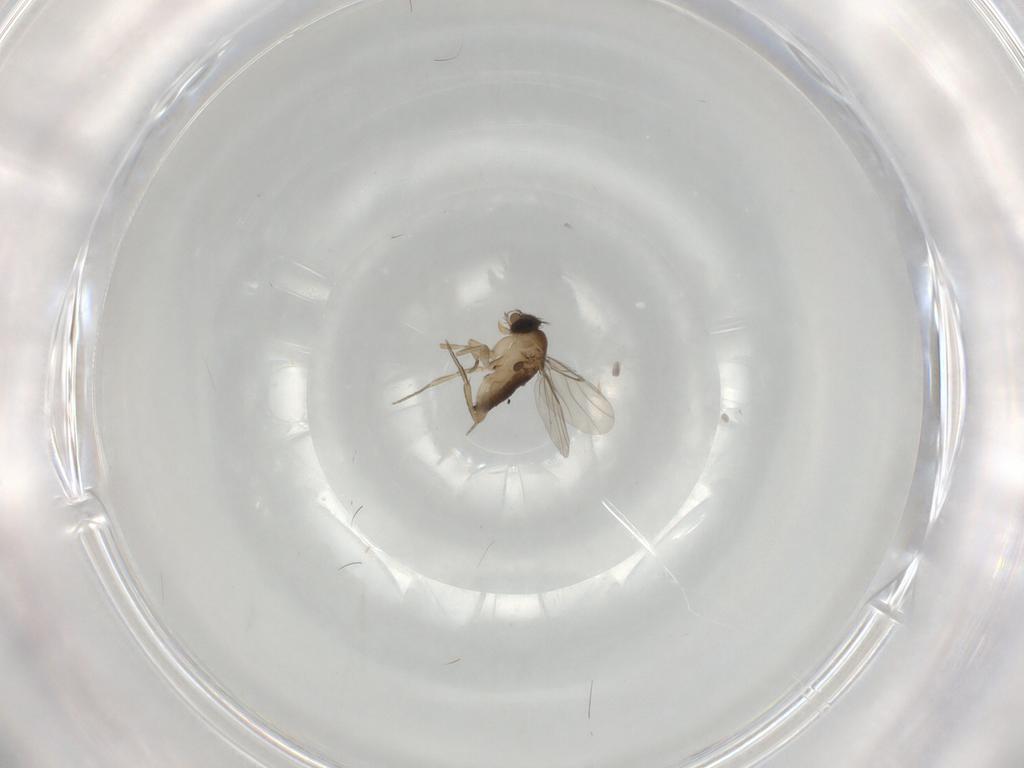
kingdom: Animalia
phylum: Arthropoda
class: Insecta
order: Diptera
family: Phoridae
